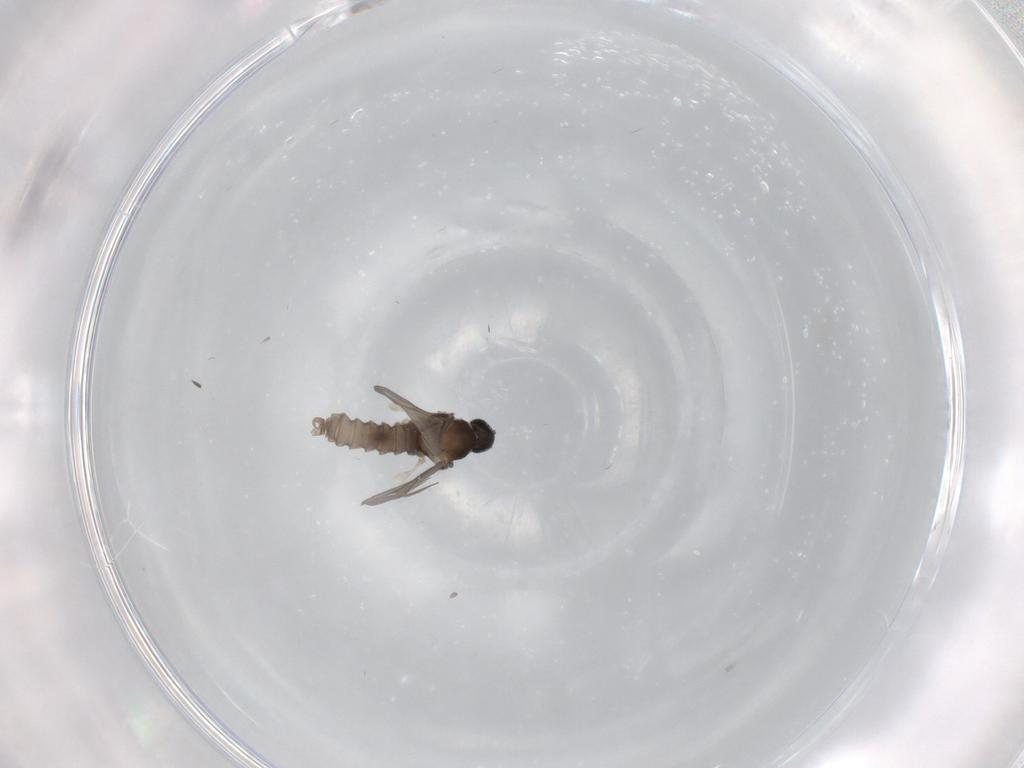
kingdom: Animalia
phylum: Arthropoda
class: Insecta
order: Diptera
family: Cecidomyiidae
